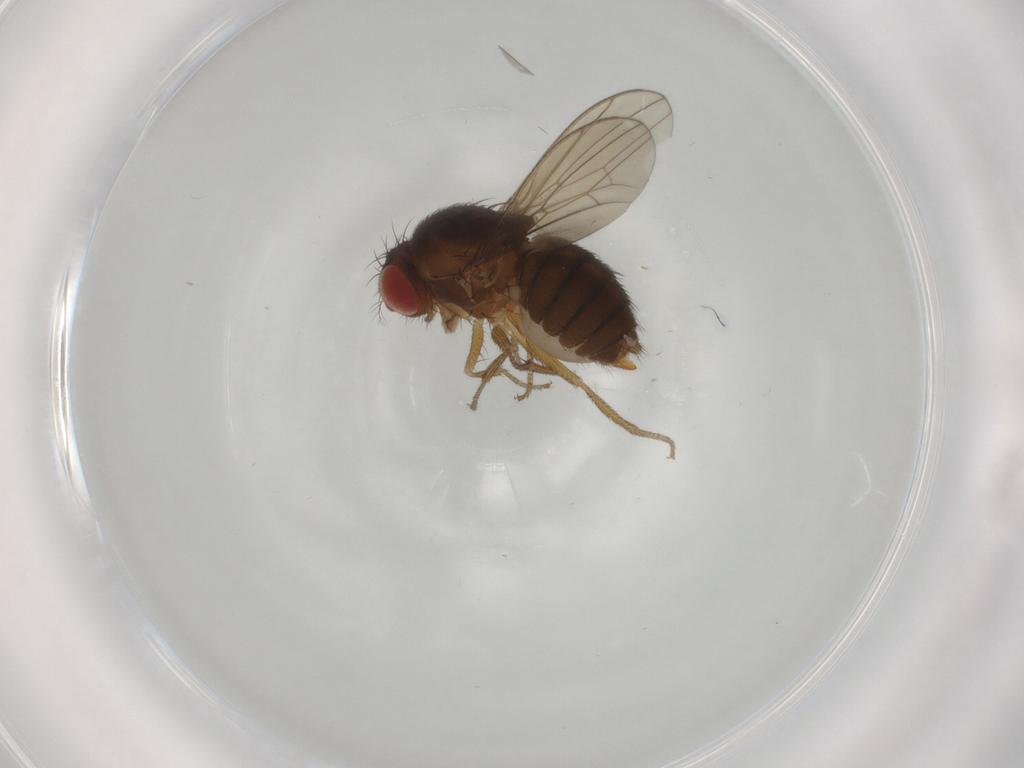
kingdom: Animalia
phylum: Arthropoda
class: Insecta
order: Diptera
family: Drosophilidae
